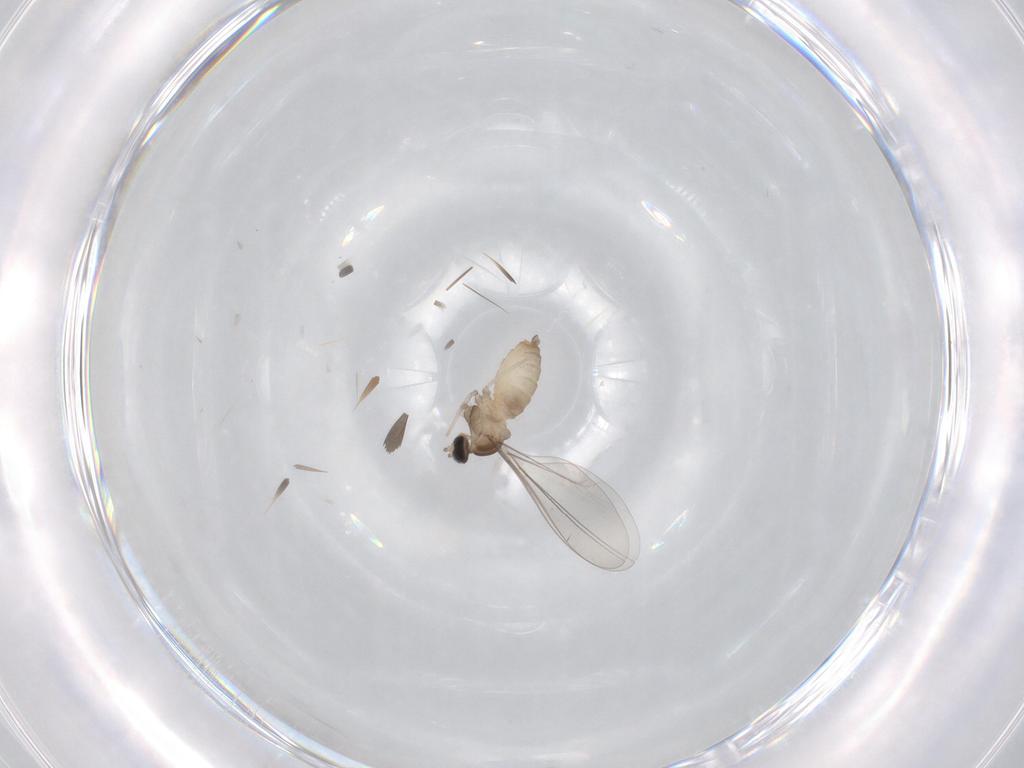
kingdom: Animalia
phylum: Arthropoda
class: Insecta
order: Diptera
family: Cecidomyiidae
